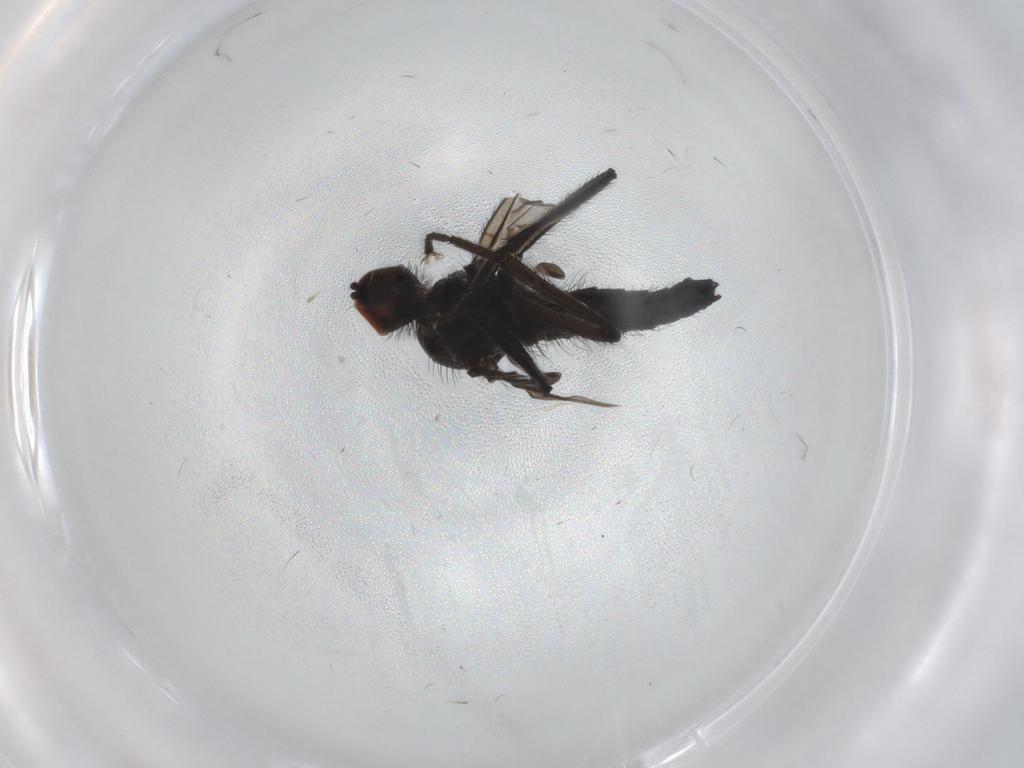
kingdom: Animalia
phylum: Arthropoda
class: Insecta
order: Diptera
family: Hybotidae
